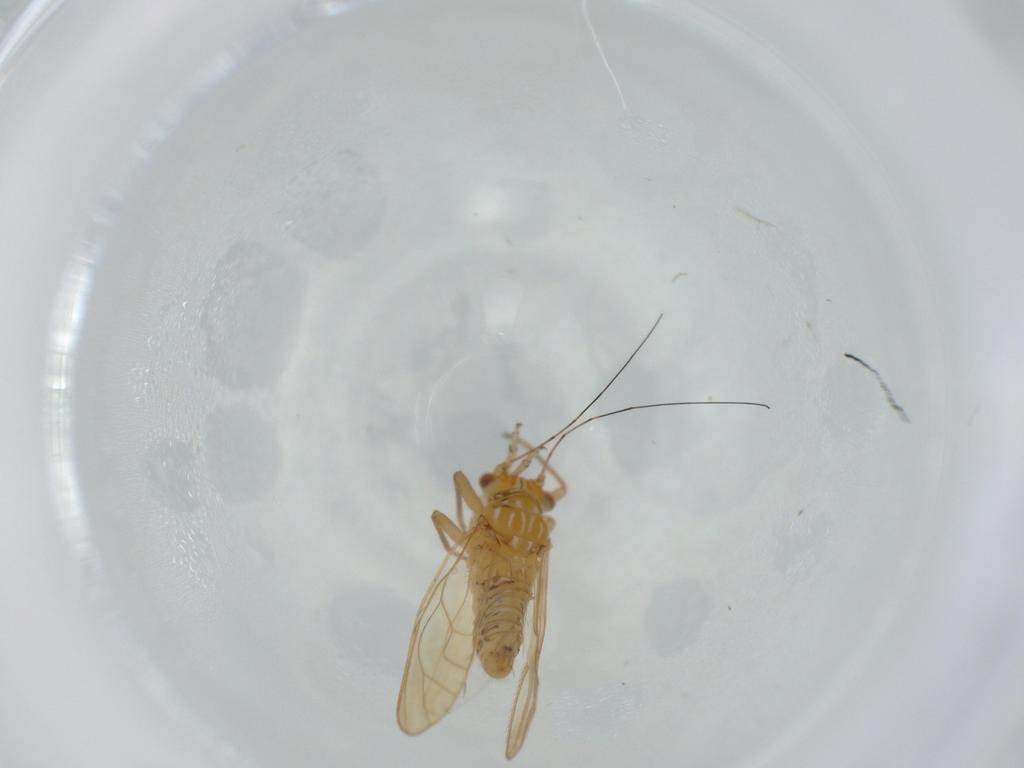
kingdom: Animalia
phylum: Arthropoda
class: Insecta
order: Hemiptera
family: Psyllidae
